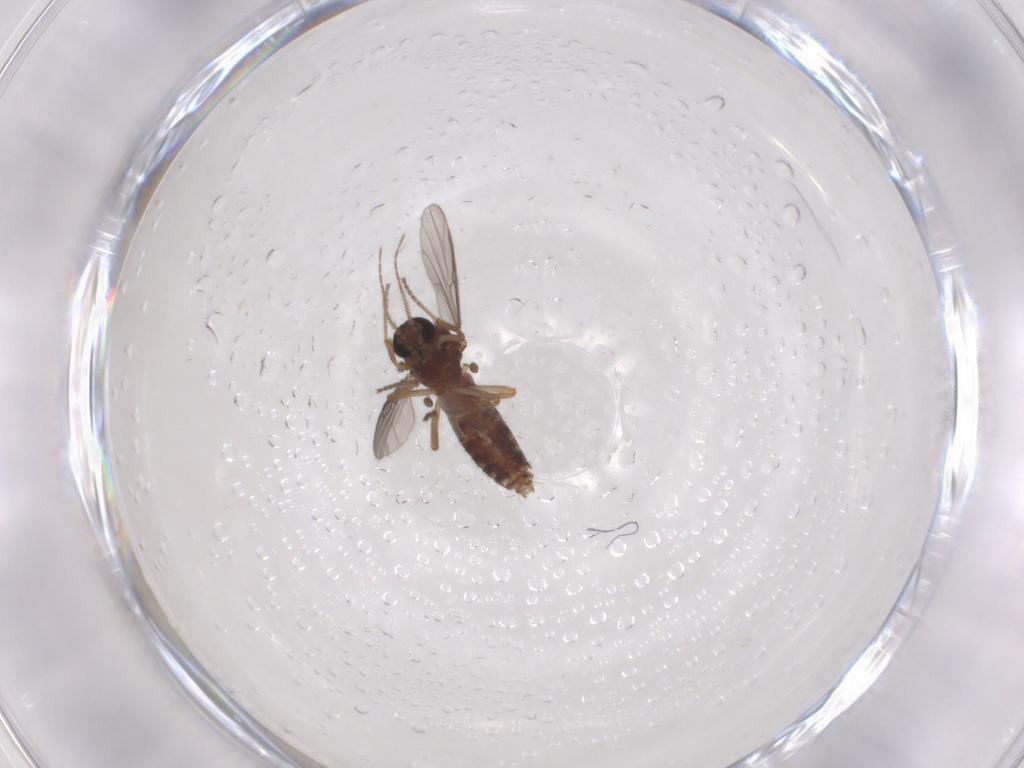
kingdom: Animalia
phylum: Arthropoda
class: Insecta
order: Diptera
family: Ceratopogonidae
